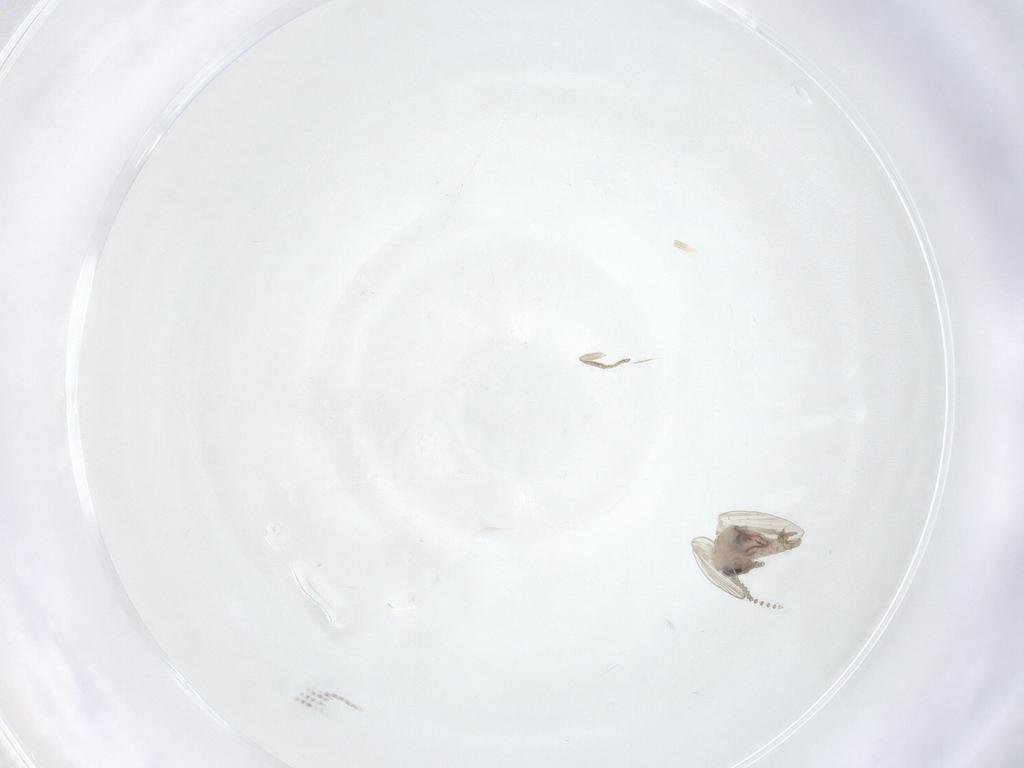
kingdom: Animalia
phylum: Arthropoda
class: Insecta
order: Diptera
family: Psychodidae
